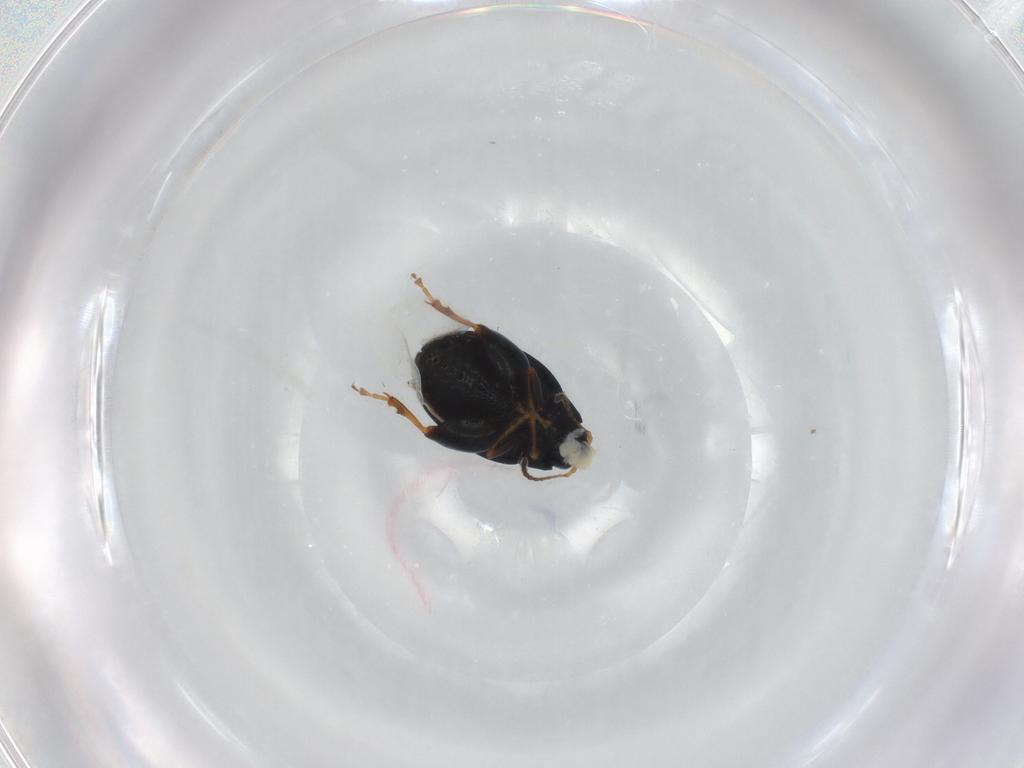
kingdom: Animalia
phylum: Arthropoda
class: Insecta
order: Coleoptera
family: Chrysomelidae
